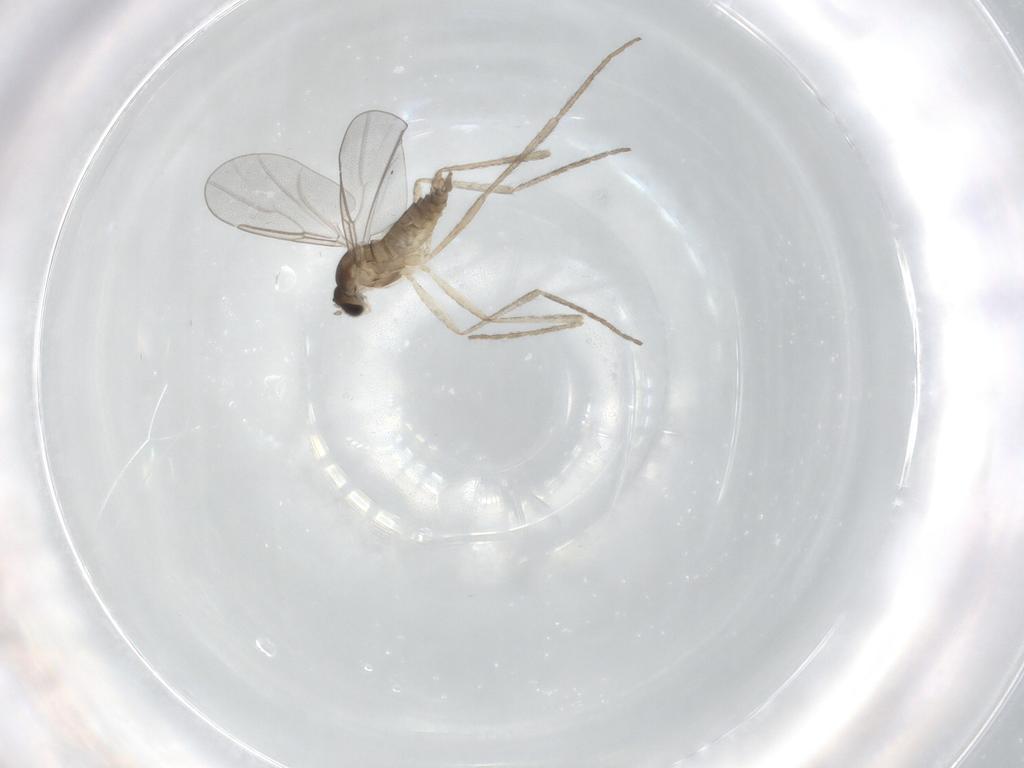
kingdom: Animalia
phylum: Arthropoda
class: Insecta
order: Diptera
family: Cecidomyiidae
